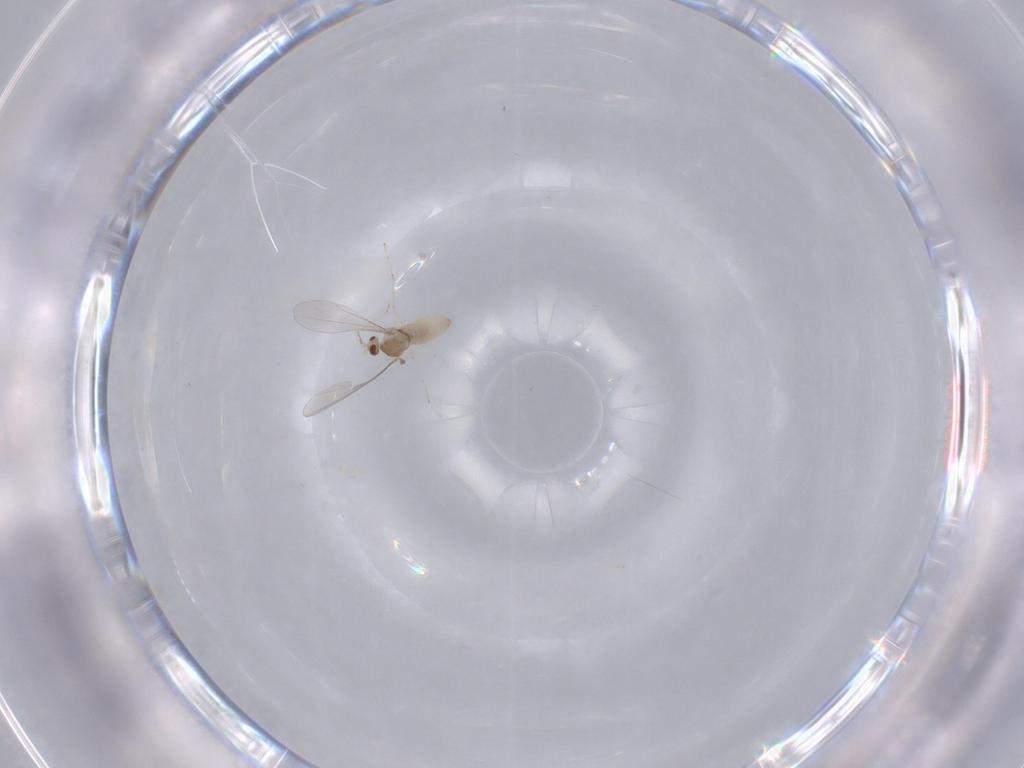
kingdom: Animalia
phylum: Arthropoda
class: Insecta
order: Diptera
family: Cecidomyiidae
